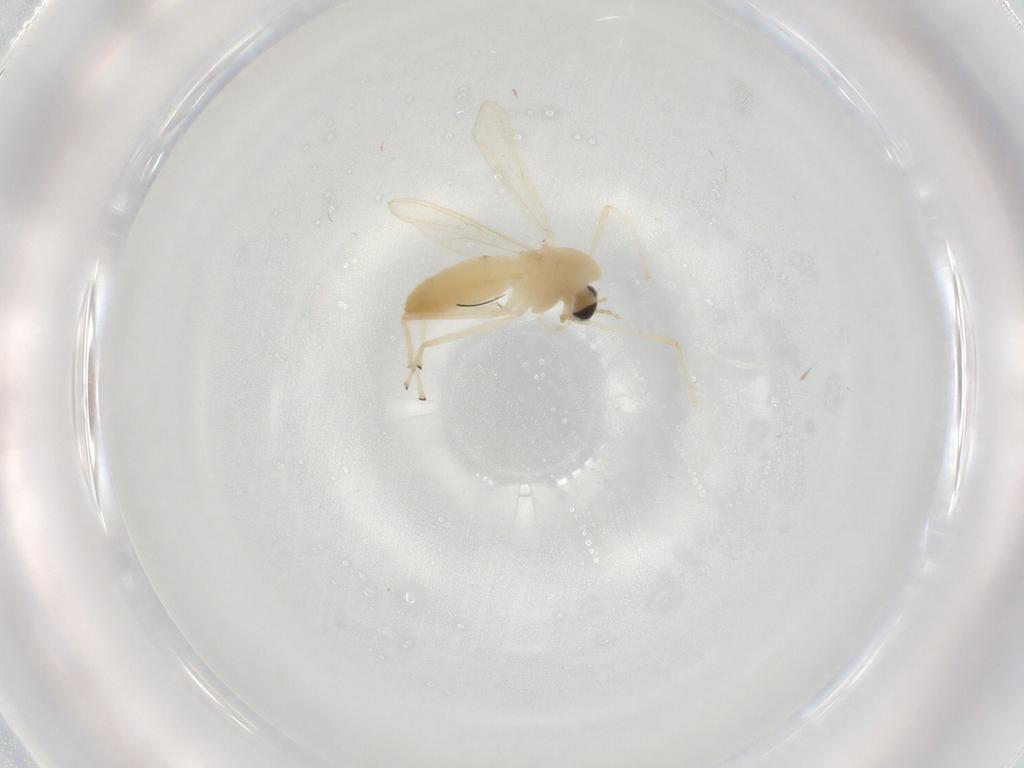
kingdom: Animalia
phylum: Arthropoda
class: Insecta
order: Diptera
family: Chironomidae
